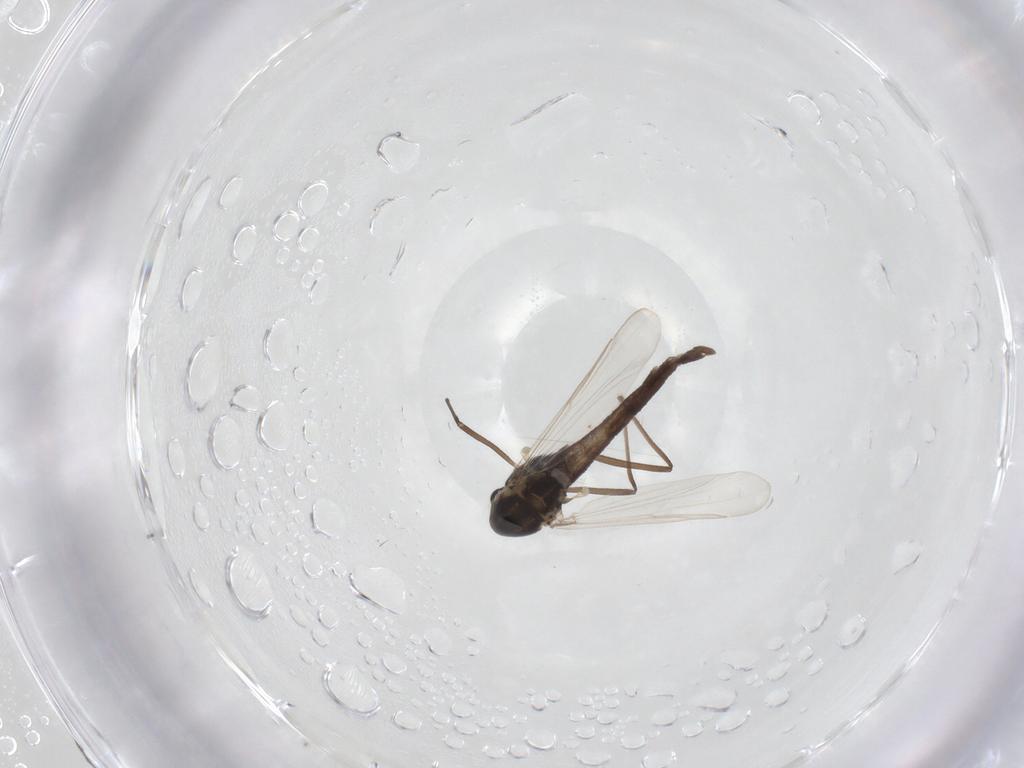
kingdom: Animalia
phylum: Arthropoda
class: Insecta
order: Diptera
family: Chironomidae
